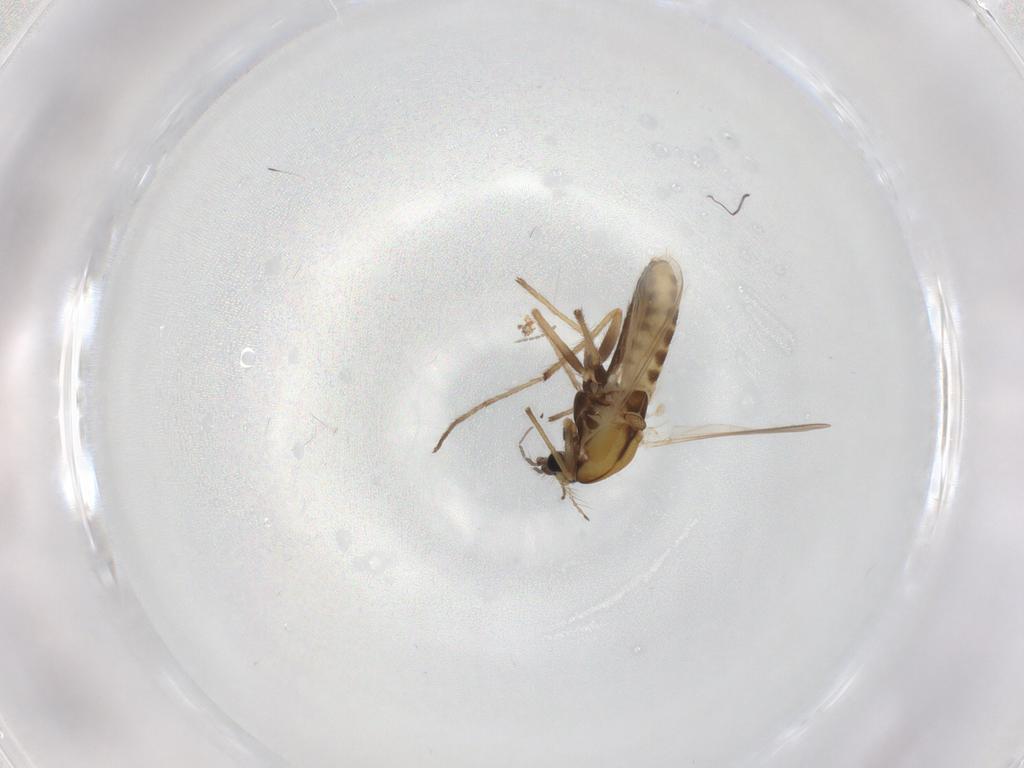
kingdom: Animalia
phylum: Arthropoda
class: Insecta
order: Diptera
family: Chironomidae
